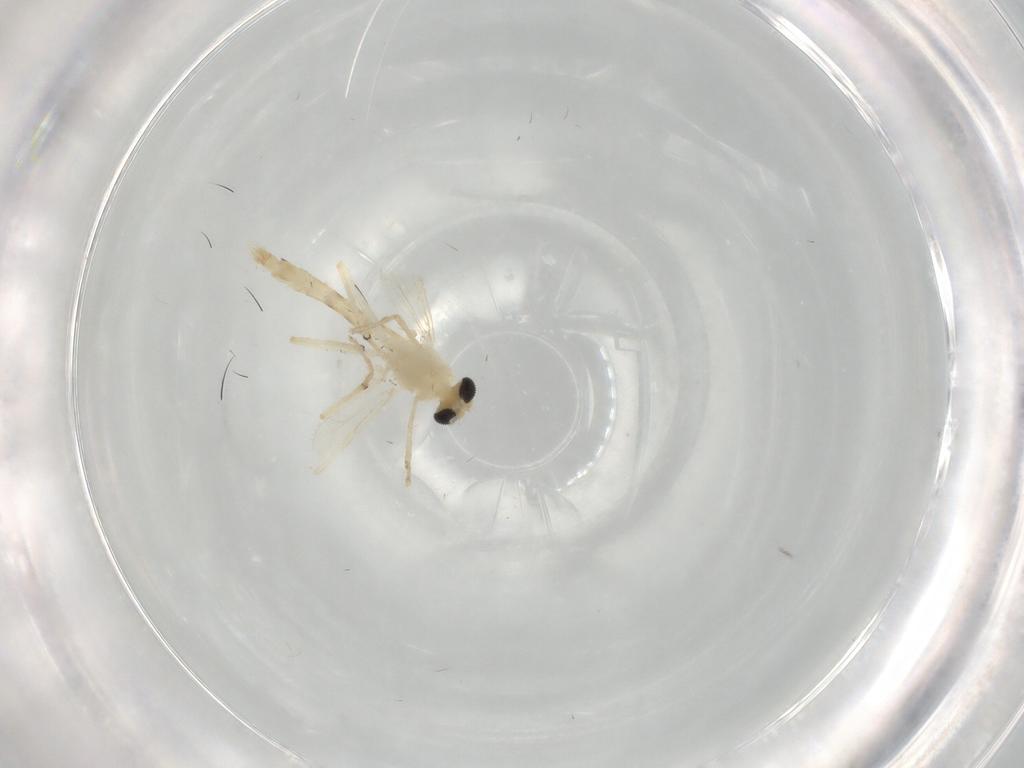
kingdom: Animalia
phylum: Arthropoda
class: Insecta
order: Diptera
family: Chironomidae
